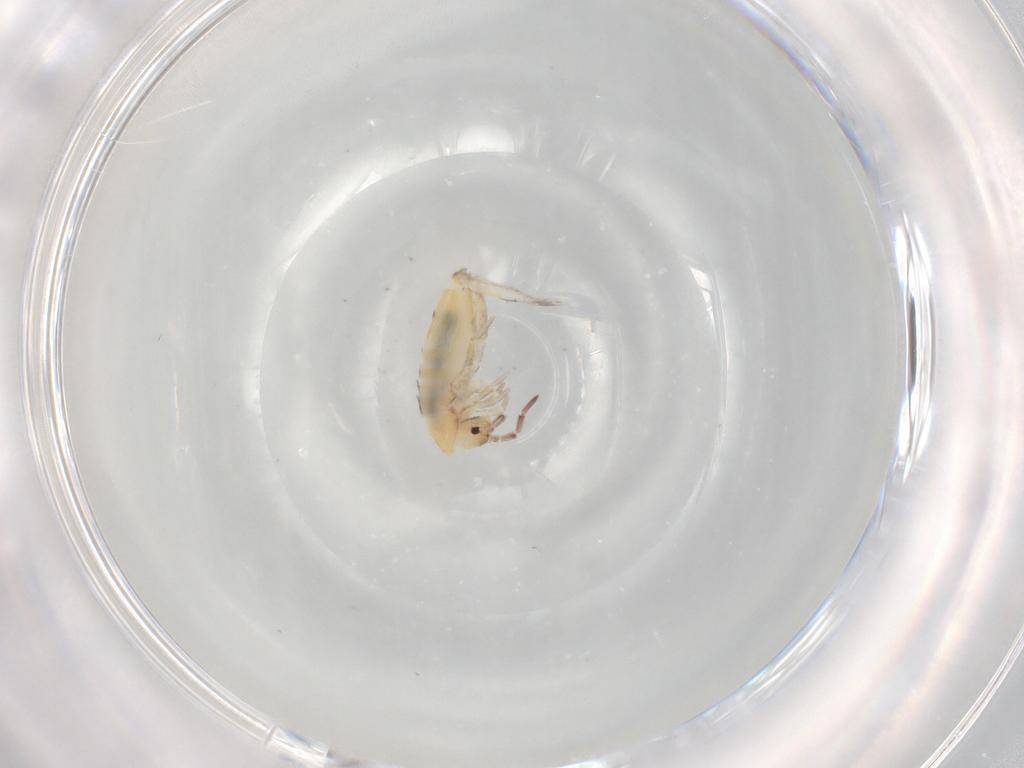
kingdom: Animalia
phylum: Arthropoda
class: Collembola
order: Entomobryomorpha
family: Entomobryidae
